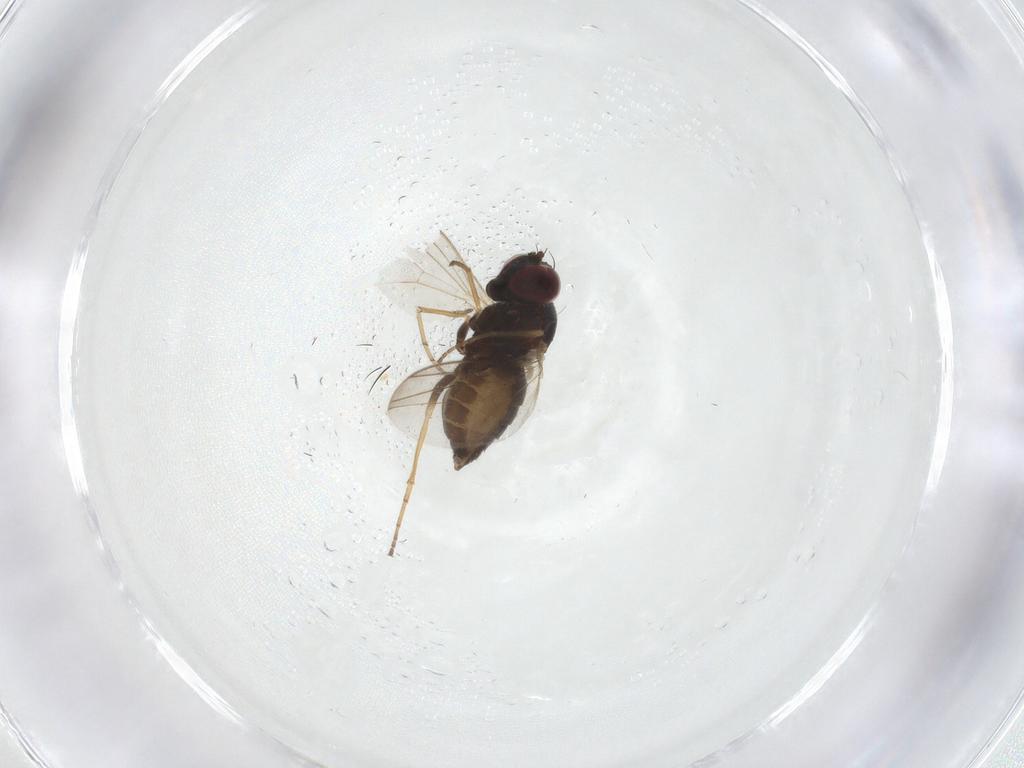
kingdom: Animalia
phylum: Arthropoda
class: Insecta
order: Diptera
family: Dolichopodidae
